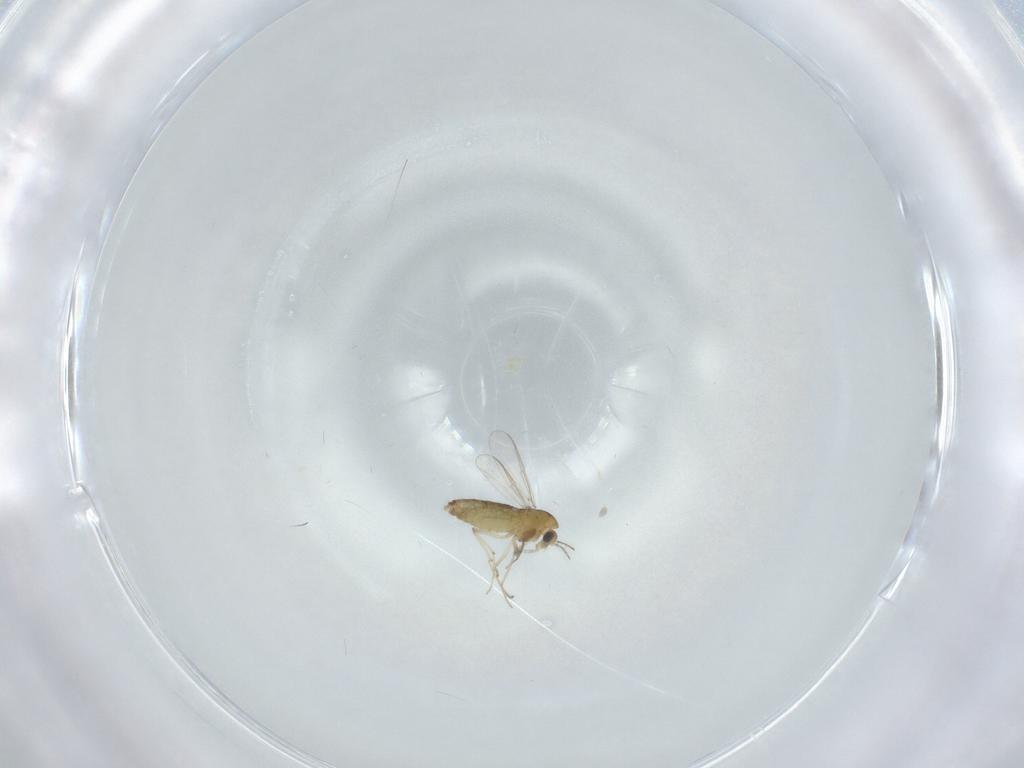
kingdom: Animalia
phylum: Arthropoda
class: Insecta
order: Diptera
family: Chironomidae
